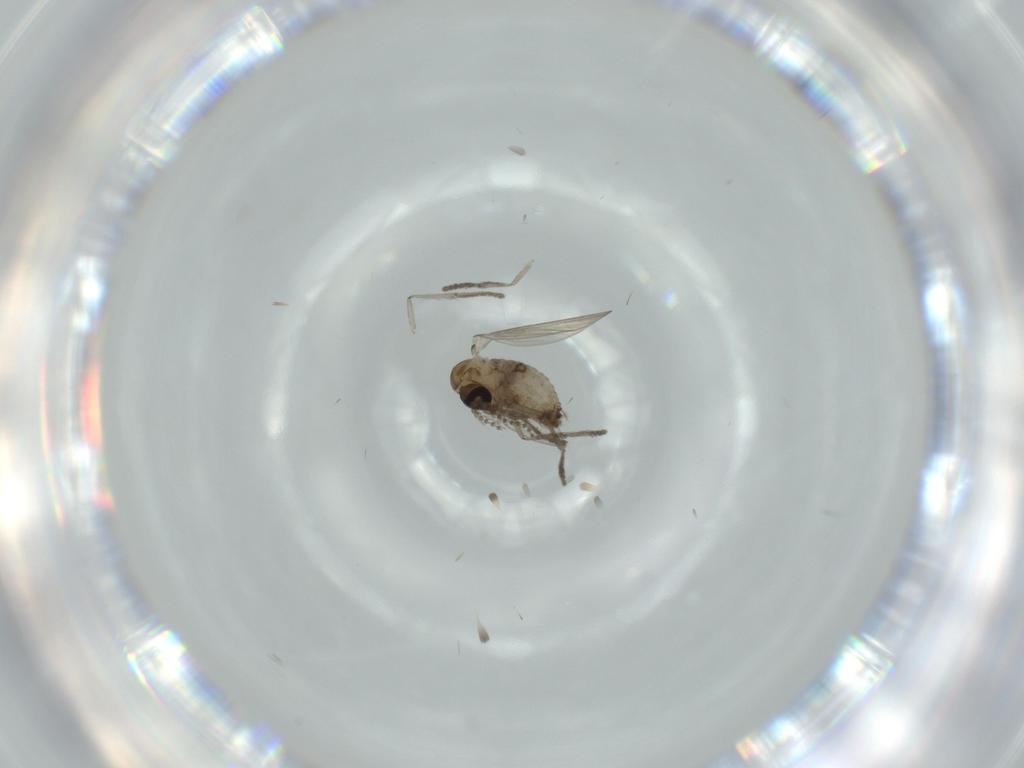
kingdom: Animalia
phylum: Arthropoda
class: Insecta
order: Diptera
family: Psychodidae
